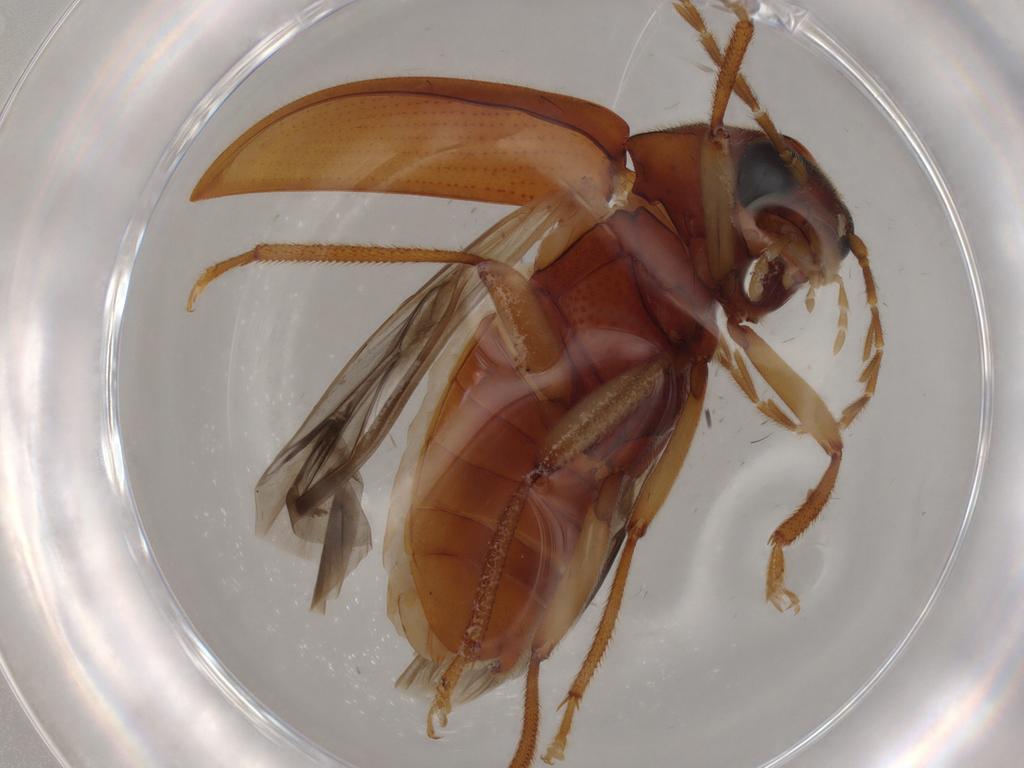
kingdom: Animalia
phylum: Arthropoda
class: Insecta
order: Coleoptera
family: Ptilodactylidae
